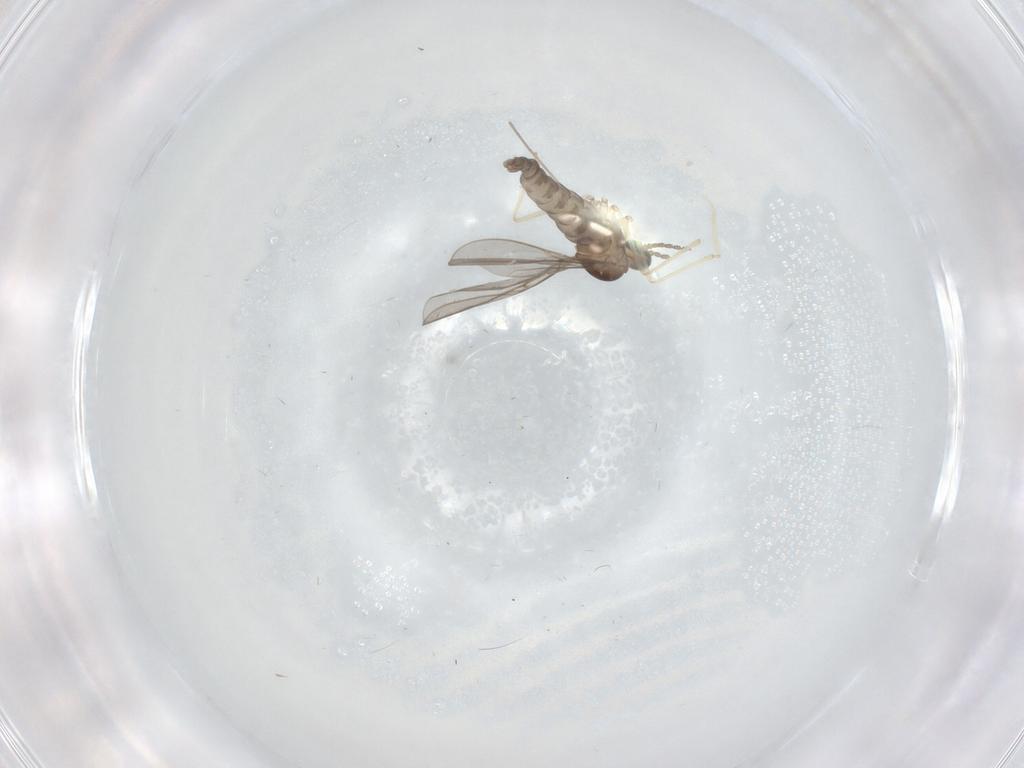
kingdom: Animalia
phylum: Arthropoda
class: Insecta
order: Diptera
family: Cecidomyiidae
